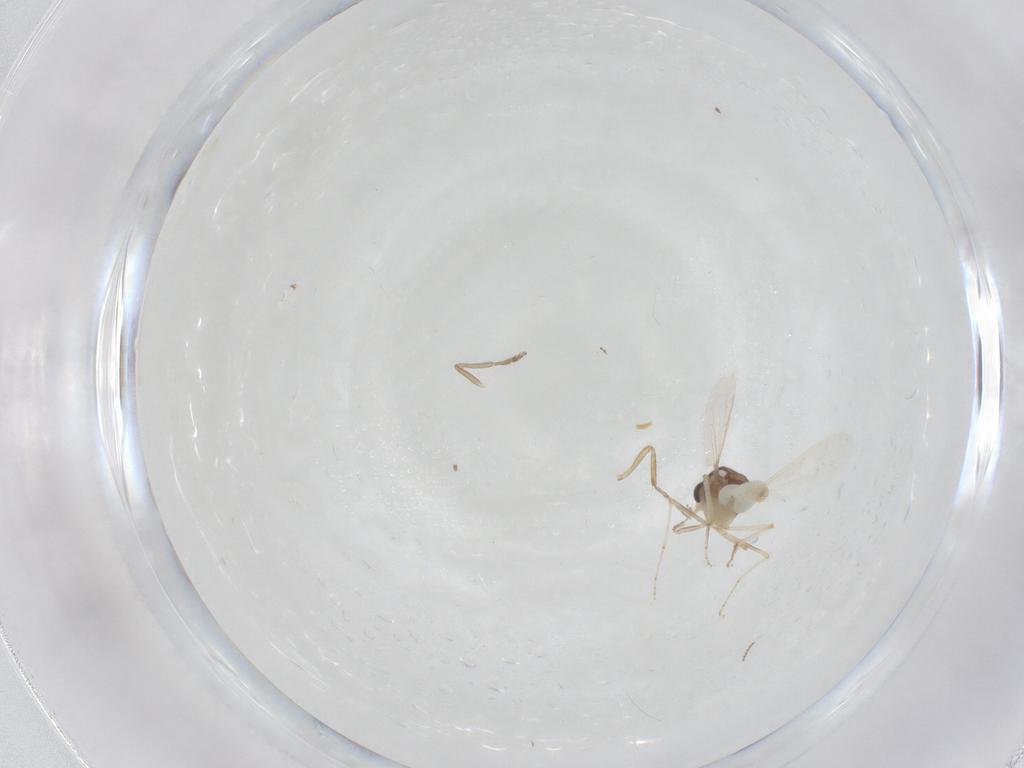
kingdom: Animalia
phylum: Arthropoda
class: Insecta
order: Diptera
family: Ceratopogonidae
